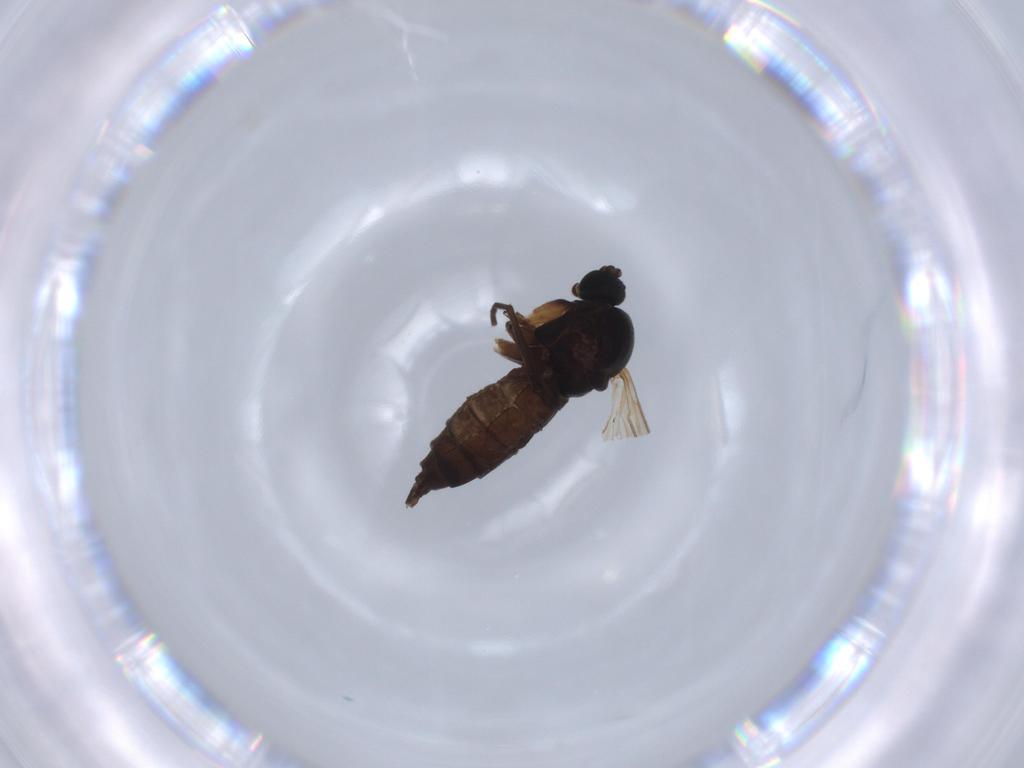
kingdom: Animalia
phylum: Arthropoda
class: Insecta
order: Diptera
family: Sciaridae
